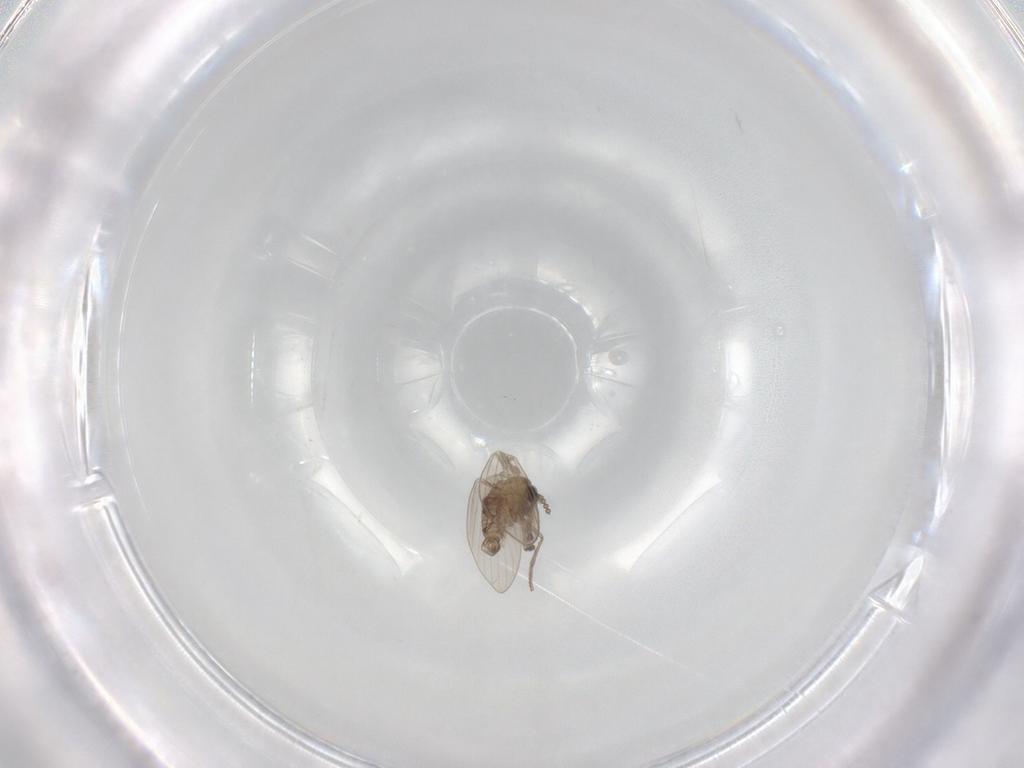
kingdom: Animalia
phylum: Arthropoda
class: Insecta
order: Diptera
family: Psychodidae
